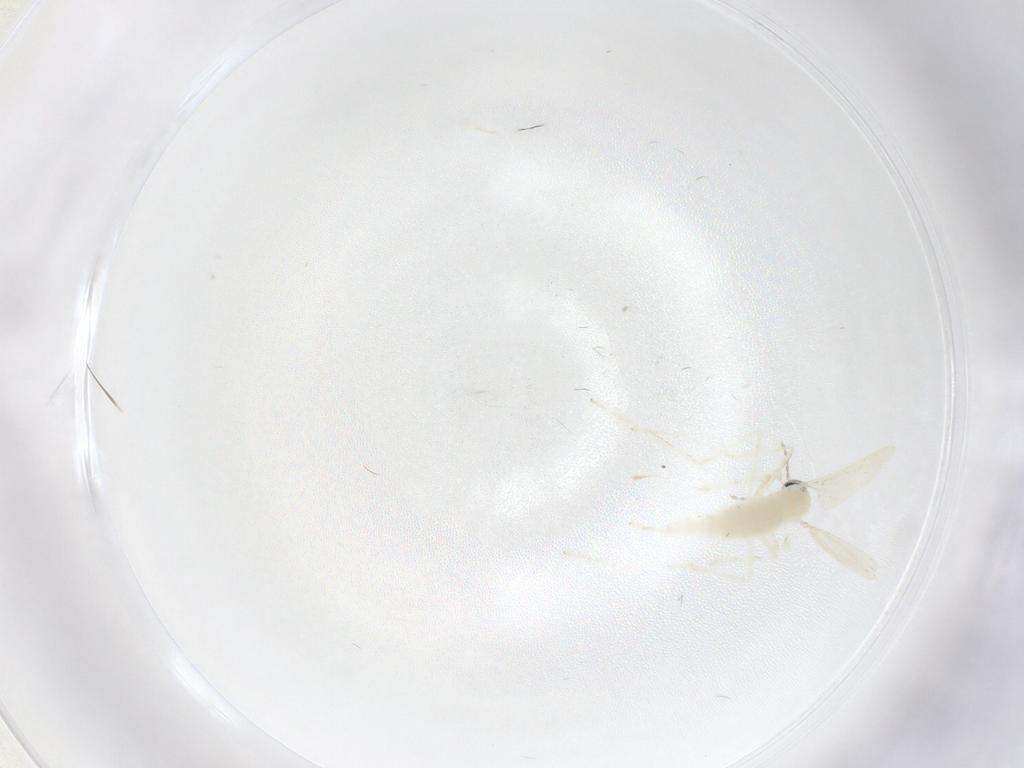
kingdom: Animalia
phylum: Arthropoda
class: Insecta
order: Diptera
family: Cecidomyiidae
